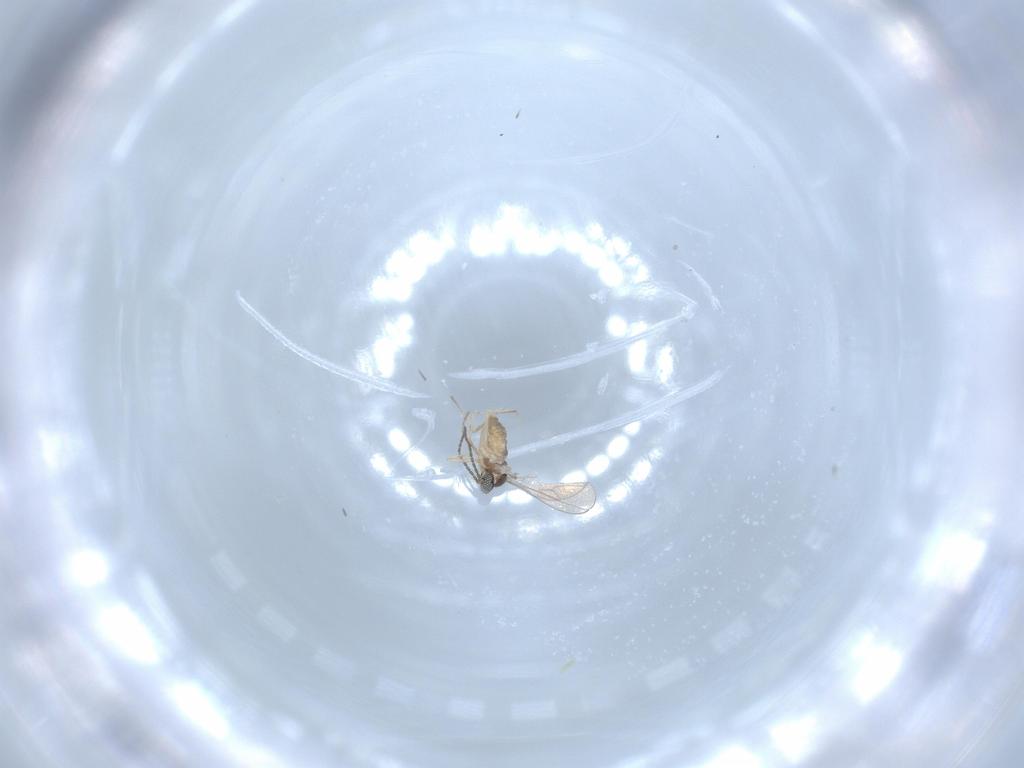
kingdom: Animalia
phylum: Arthropoda
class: Insecta
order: Diptera
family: Cecidomyiidae
